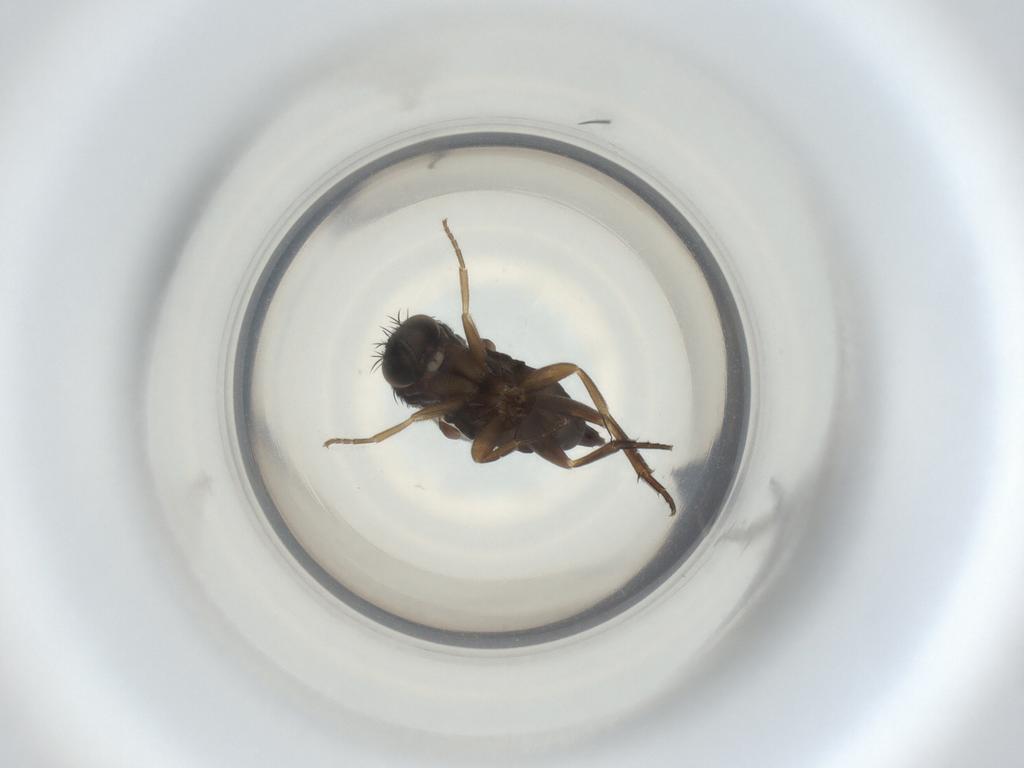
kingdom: Animalia
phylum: Arthropoda
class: Insecta
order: Diptera
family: Phoridae
